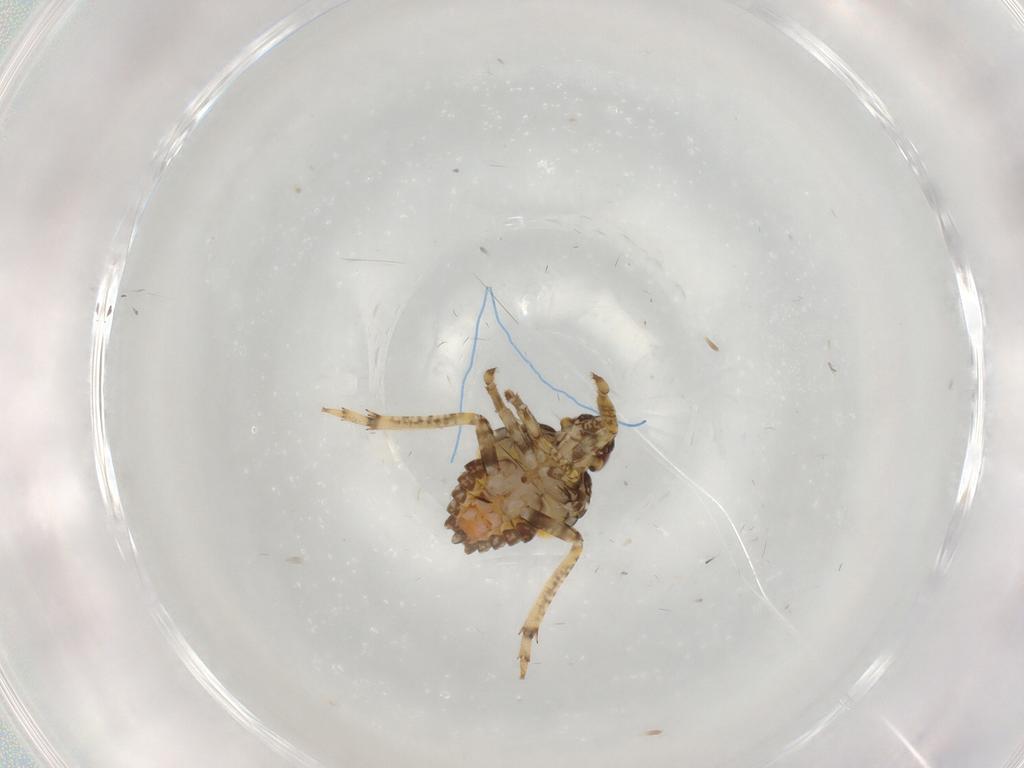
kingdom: Animalia
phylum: Arthropoda
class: Insecta
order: Hemiptera
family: Issidae
